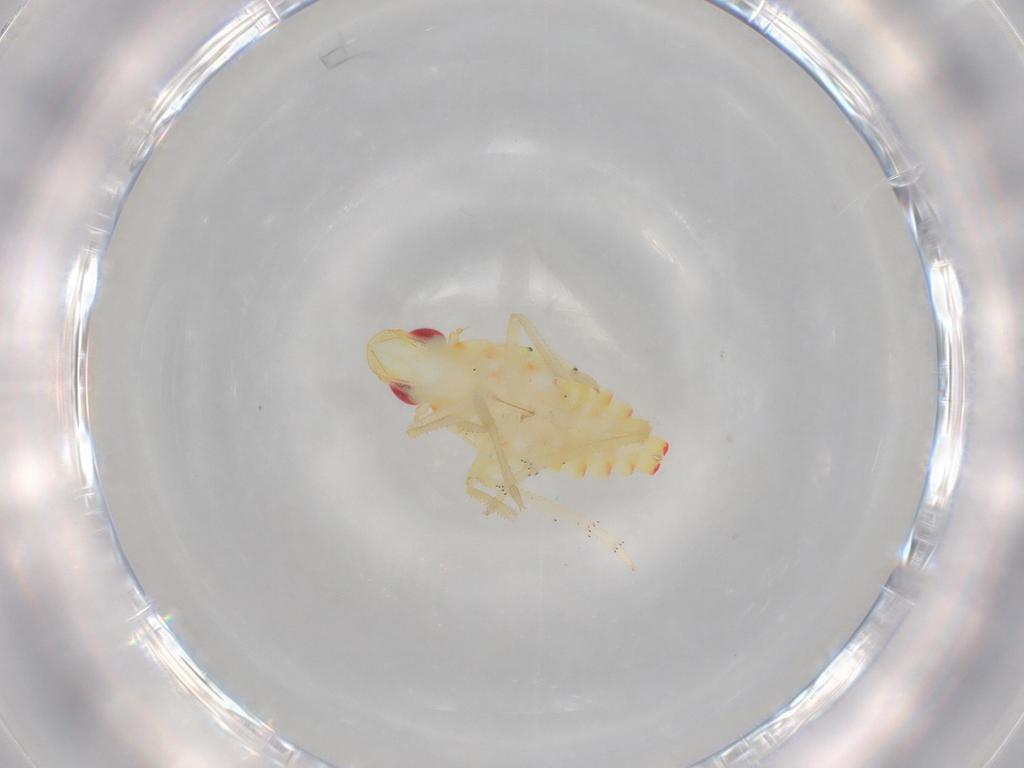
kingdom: Animalia
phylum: Arthropoda
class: Insecta
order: Hemiptera
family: Tropiduchidae
